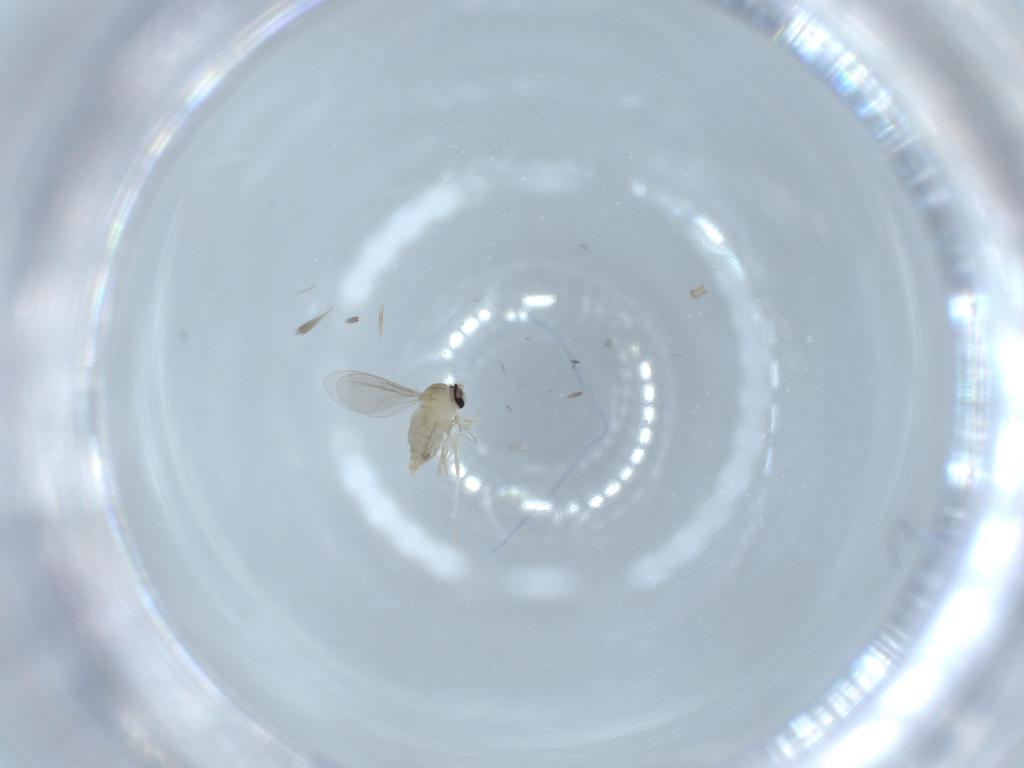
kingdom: Animalia
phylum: Arthropoda
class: Insecta
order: Diptera
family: Cecidomyiidae
